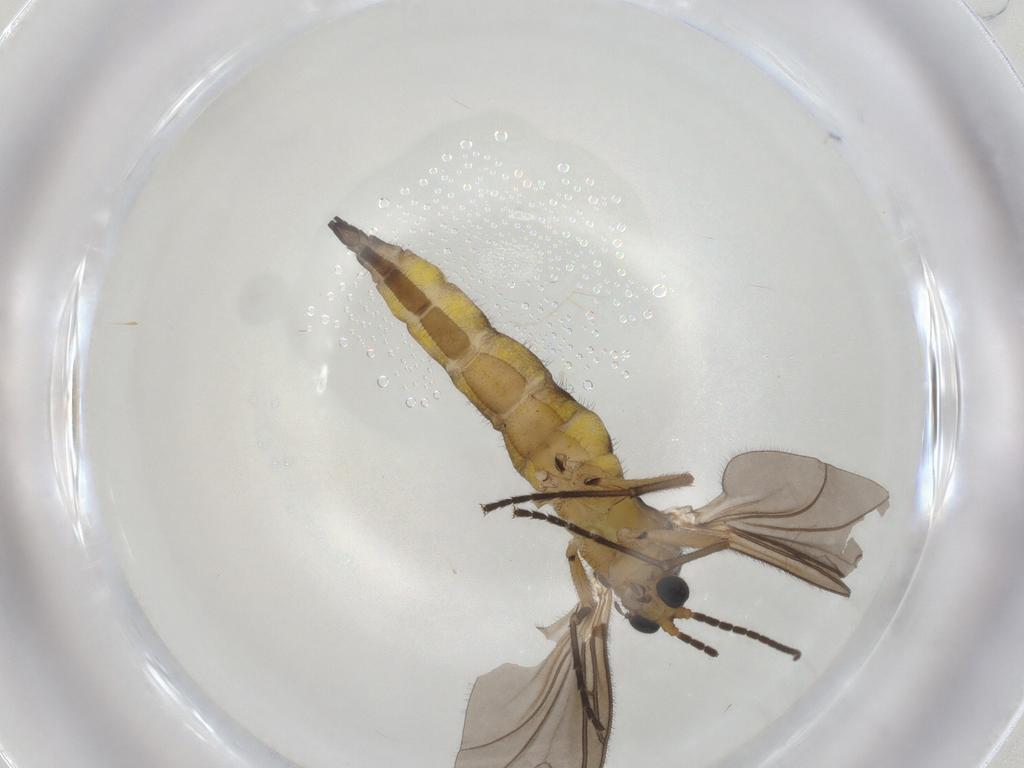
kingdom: Animalia
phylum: Arthropoda
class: Insecta
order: Diptera
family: Sciaridae
